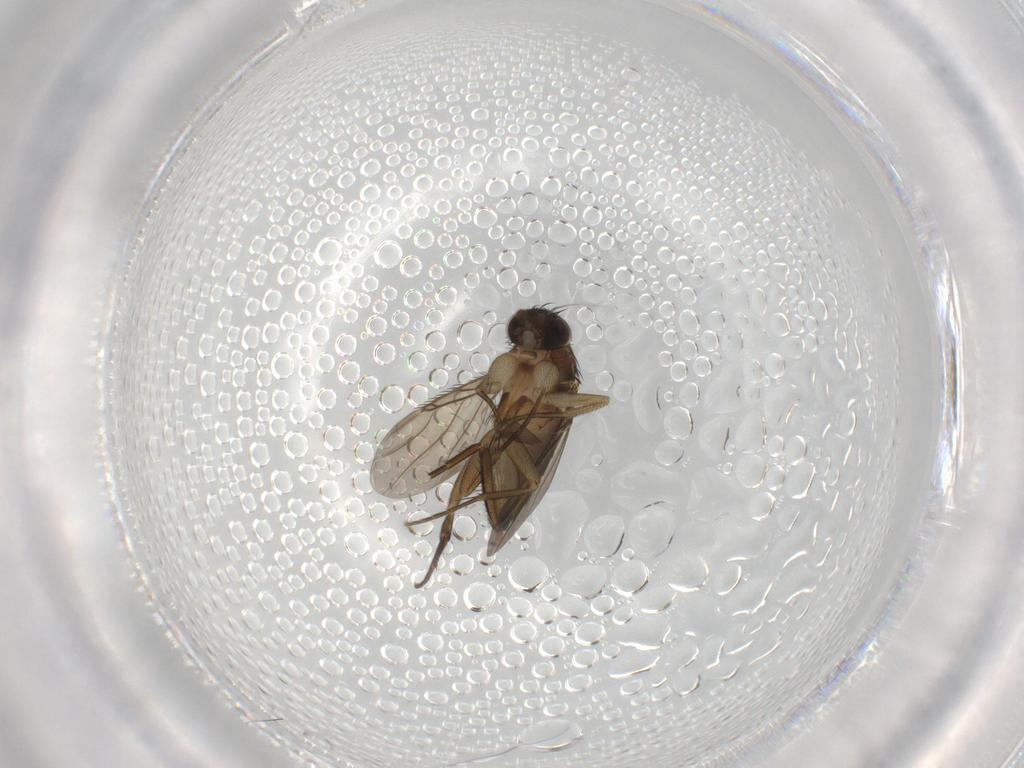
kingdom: Animalia
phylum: Arthropoda
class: Insecta
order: Diptera
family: Phoridae
